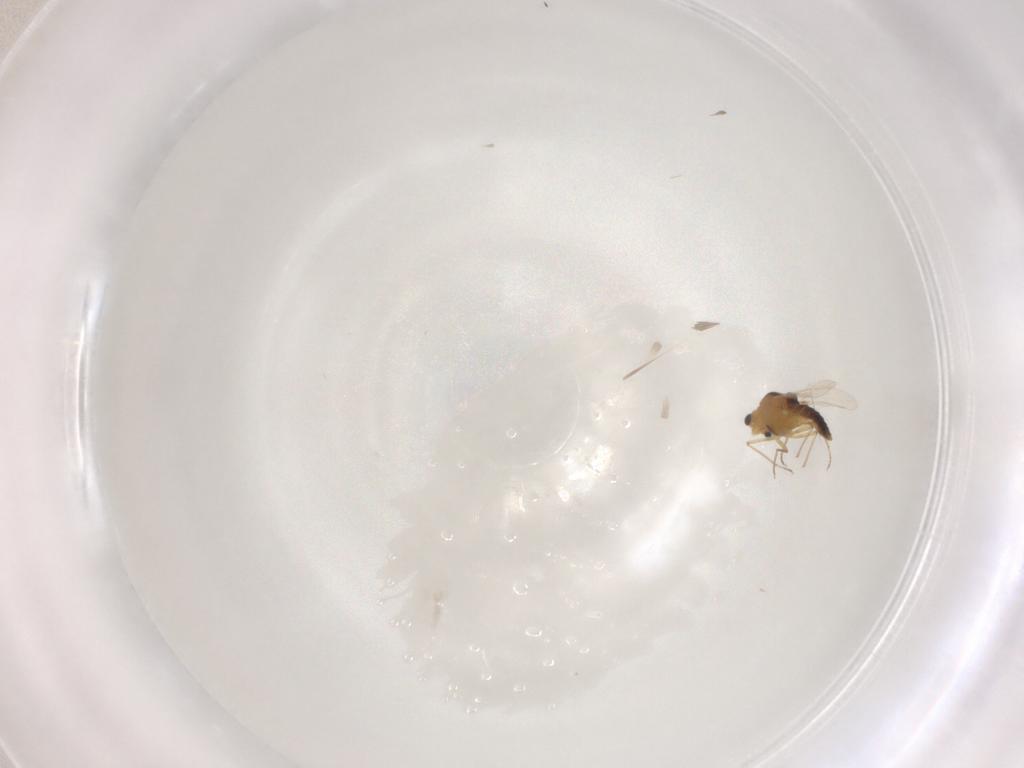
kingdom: Animalia
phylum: Arthropoda
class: Insecta
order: Diptera
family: Chironomidae
